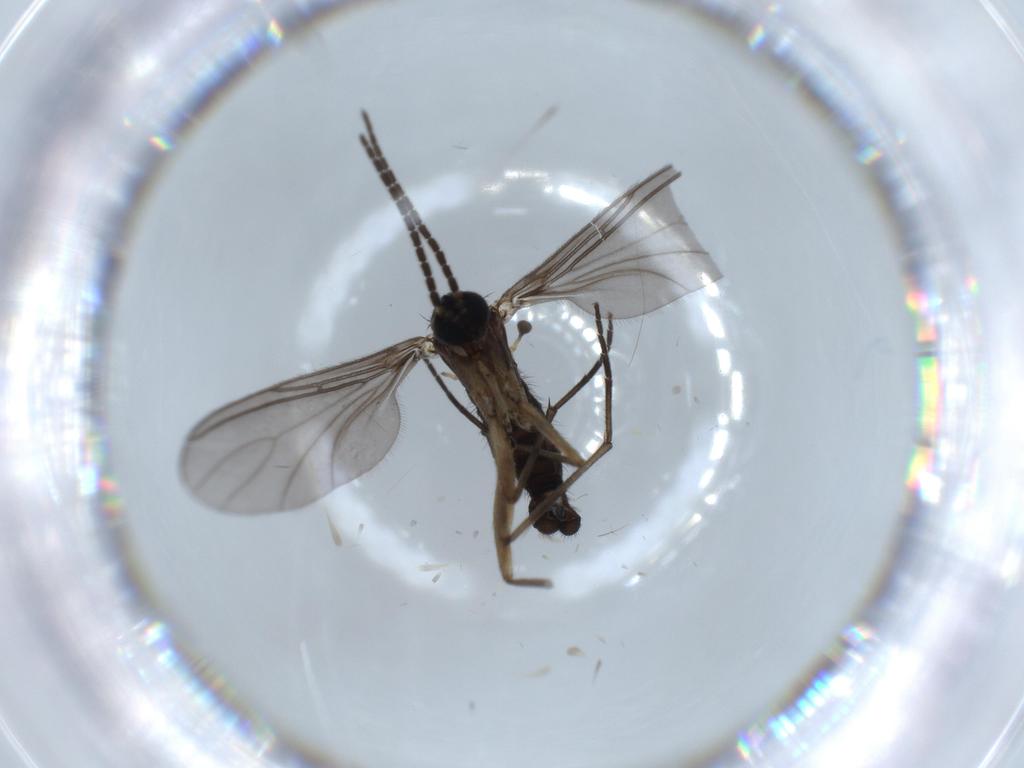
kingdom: Animalia
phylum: Arthropoda
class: Insecta
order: Diptera
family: Sciaridae
